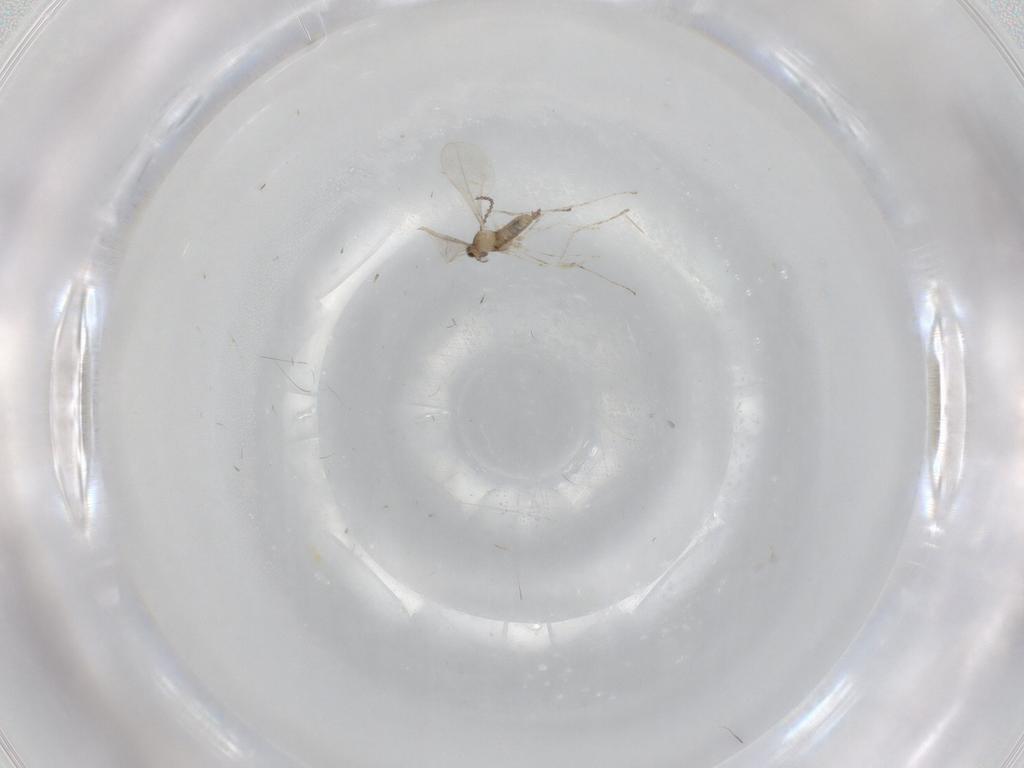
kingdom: Animalia
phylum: Arthropoda
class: Insecta
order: Diptera
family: Cecidomyiidae
